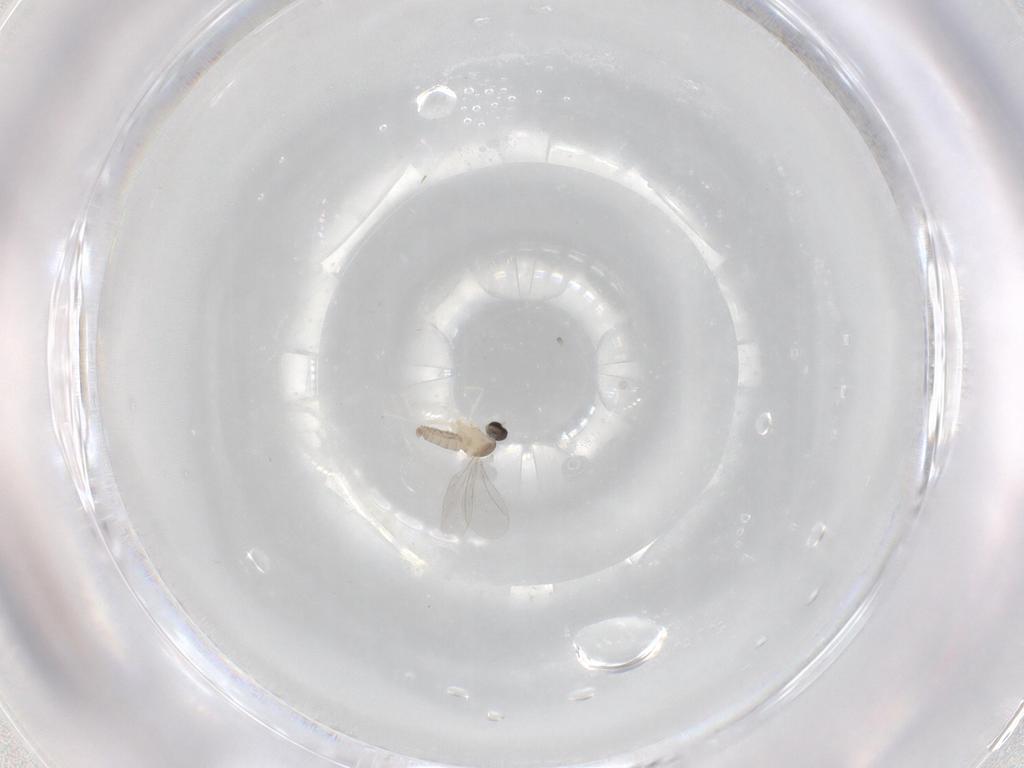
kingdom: Animalia
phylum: Arthropoda
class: Insecta
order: Diptera
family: Cecidomyiidae
